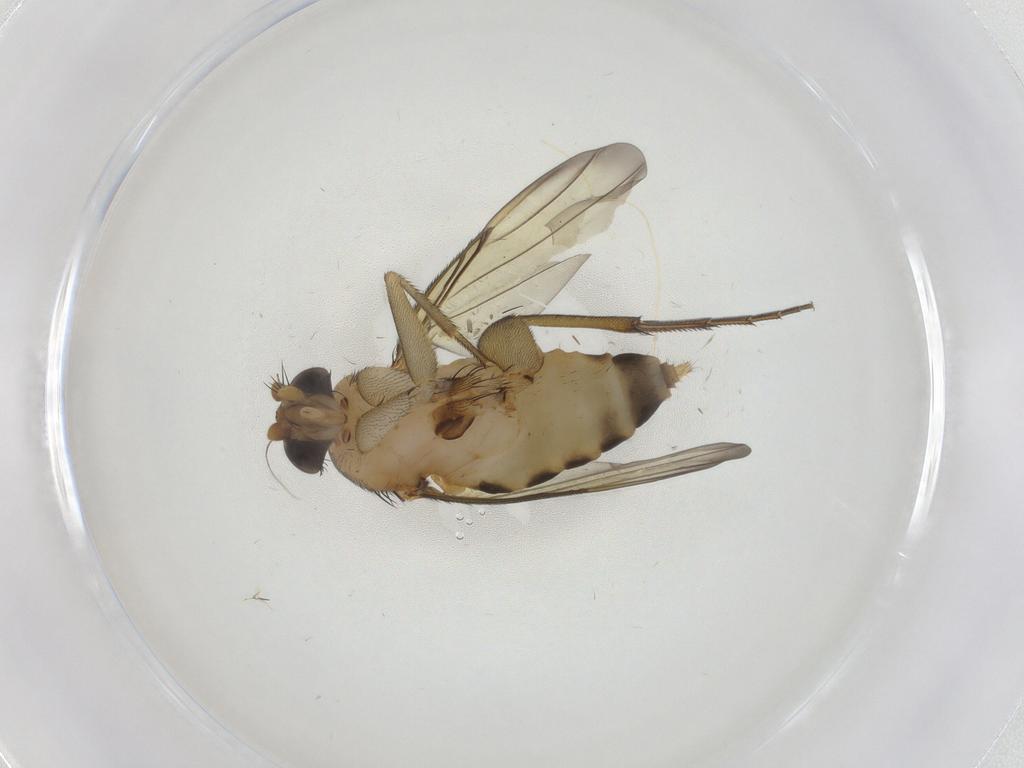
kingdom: Animalia
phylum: Arthropoda
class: Insecta
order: Diptera
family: Phoridae
